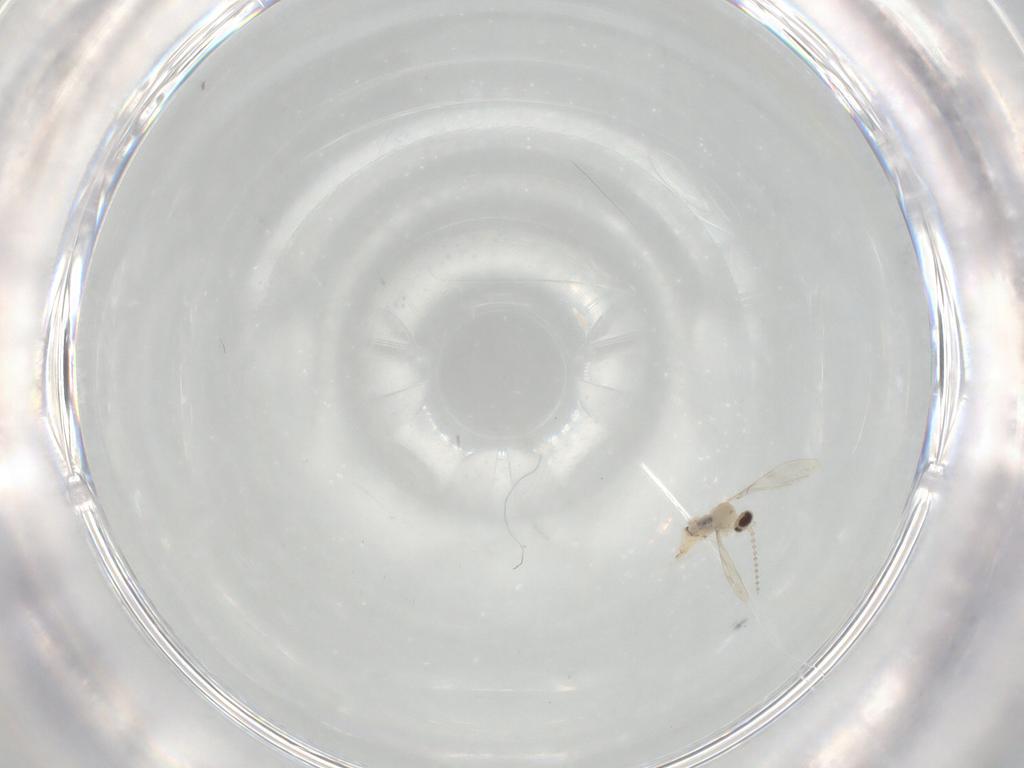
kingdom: Animalia
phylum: Arthropoda
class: Insecta
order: Diptera
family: Cecidomyiidae
